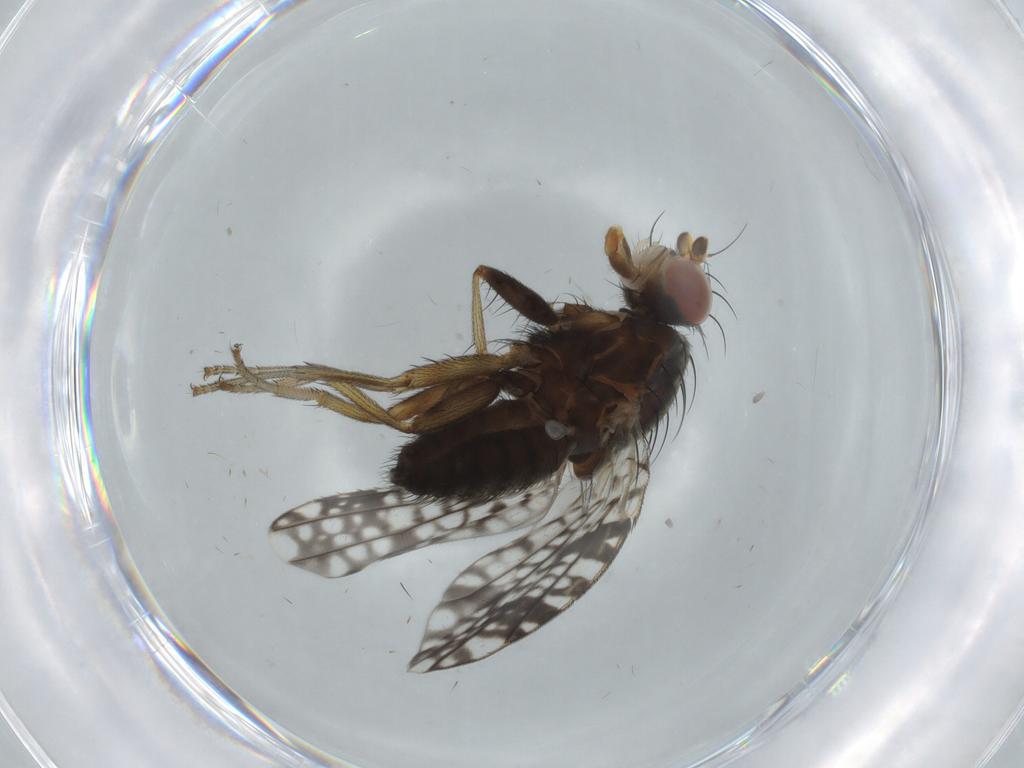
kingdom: Animalia
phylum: Arthropoda
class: Insecta
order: Diptera
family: Tephritidae
